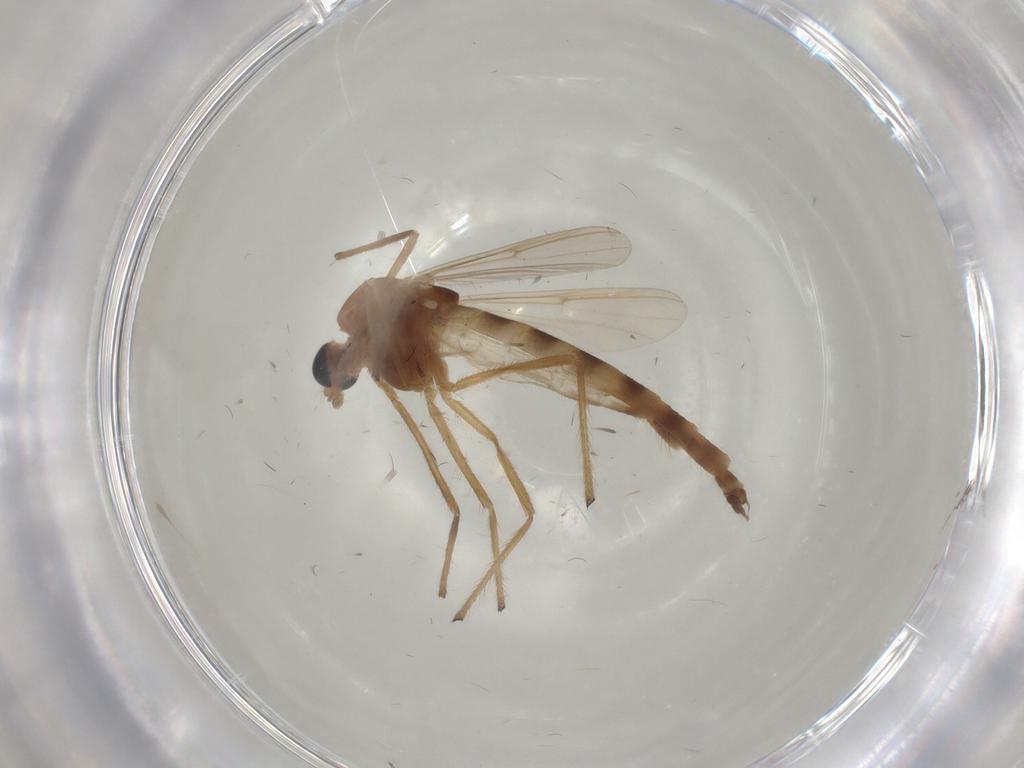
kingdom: Animalia
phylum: Arthropoda
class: Insecta
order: Diptera
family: Chironomidae
